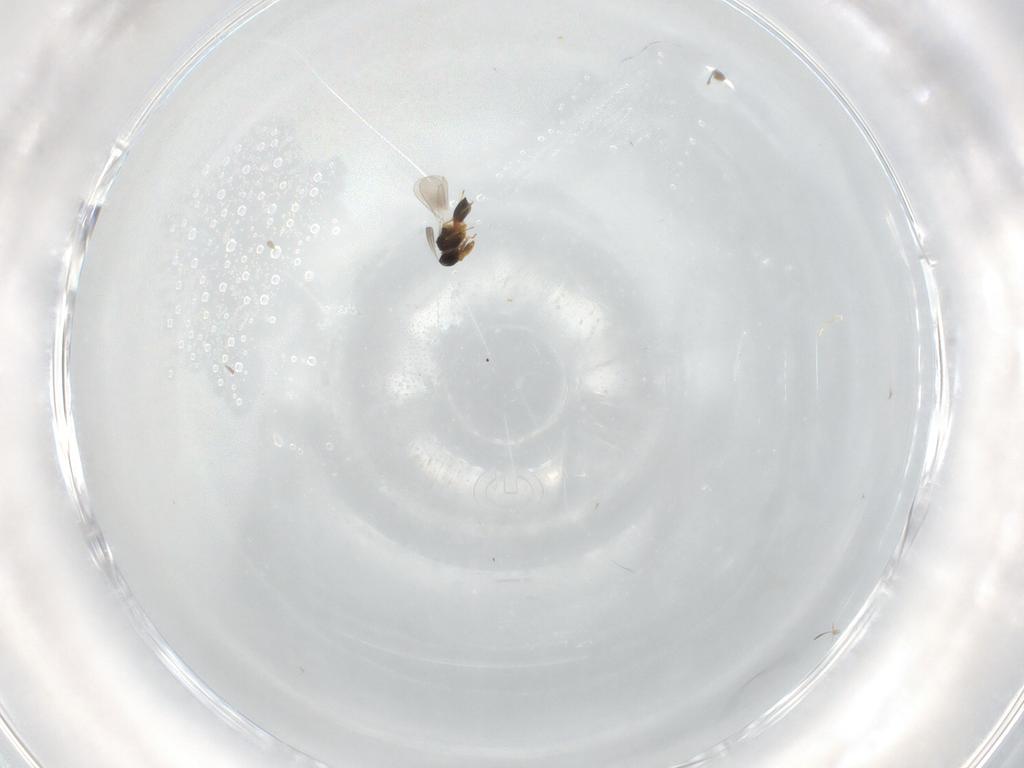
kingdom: Animalia
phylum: Arthropoda
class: Insecta
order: Hymenoptera
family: Platygastridae
